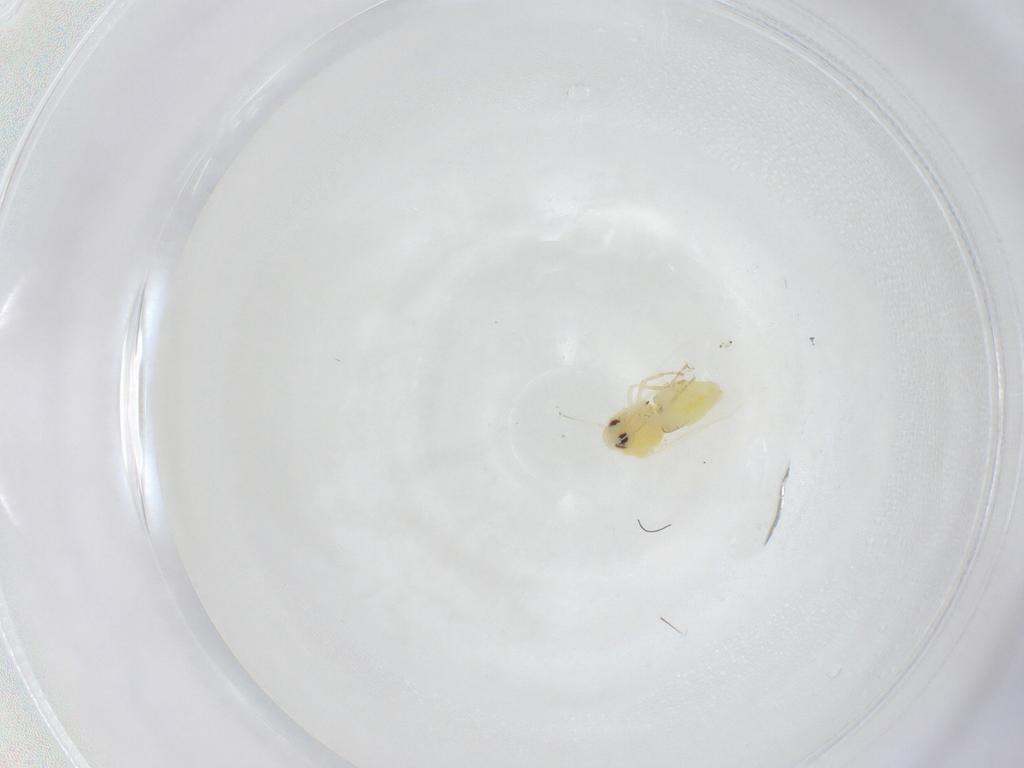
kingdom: Animalia
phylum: Arthropoda
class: Insecta
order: Hemiptera
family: Aleyrodidae
